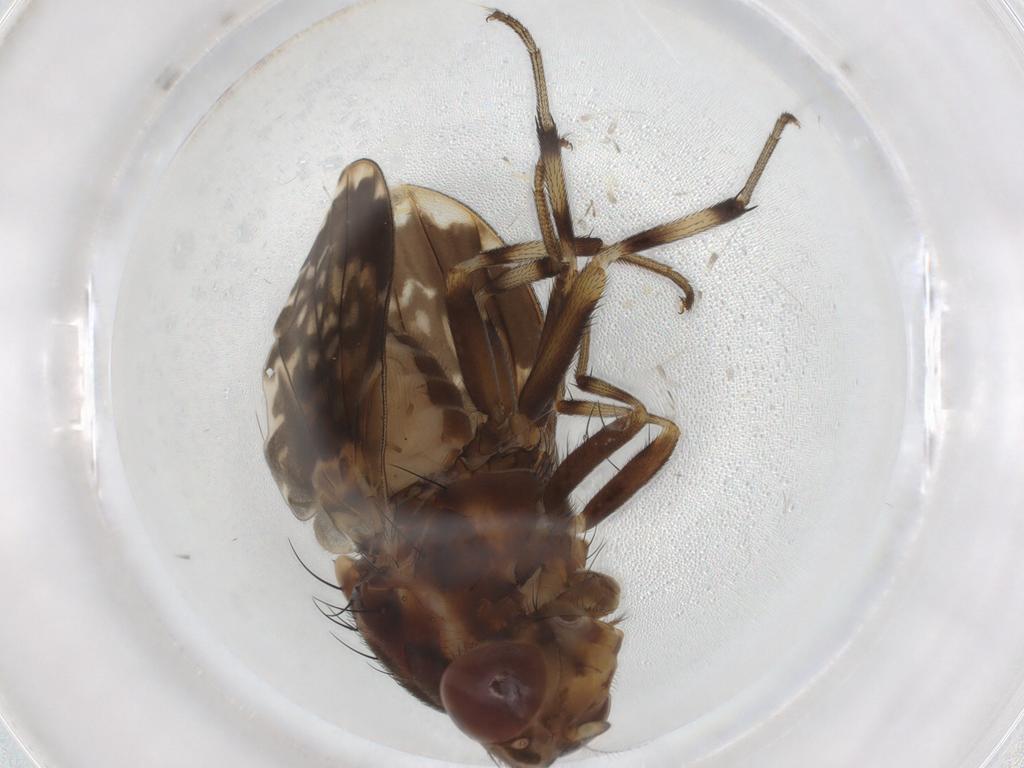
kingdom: Animalia
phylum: Arthropoda
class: Insecta
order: Diptera
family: Lauxaniidae
